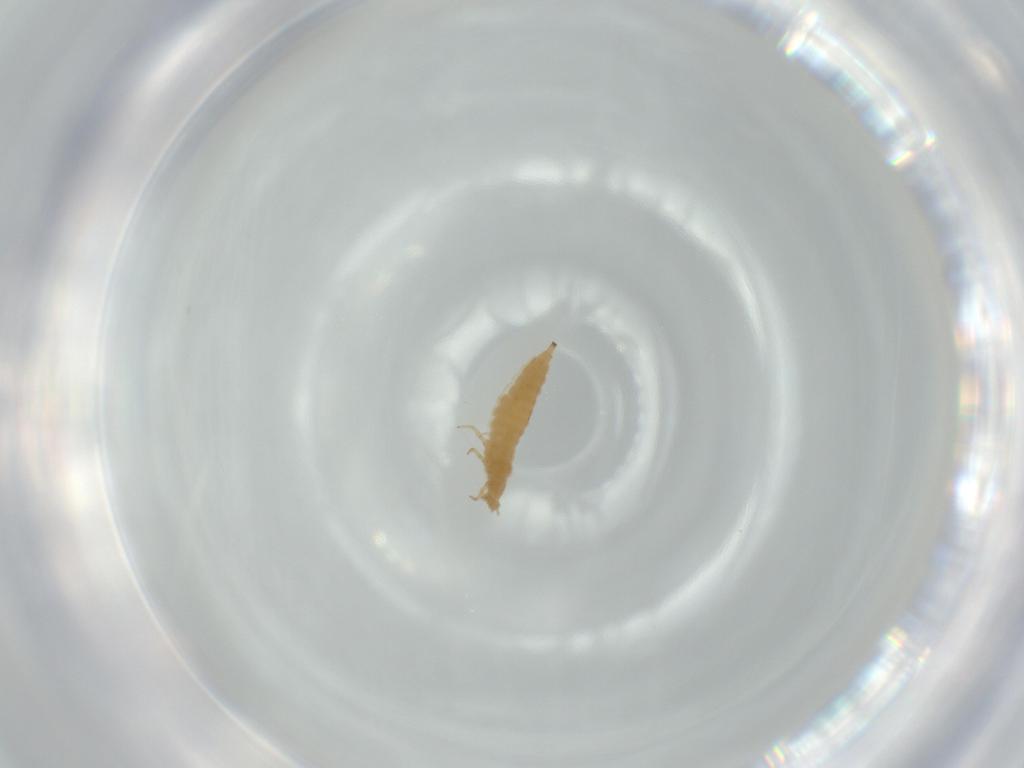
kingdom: Animalia
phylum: Arthropoda
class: Insecta
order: Thysanoptera
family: Thripidae
